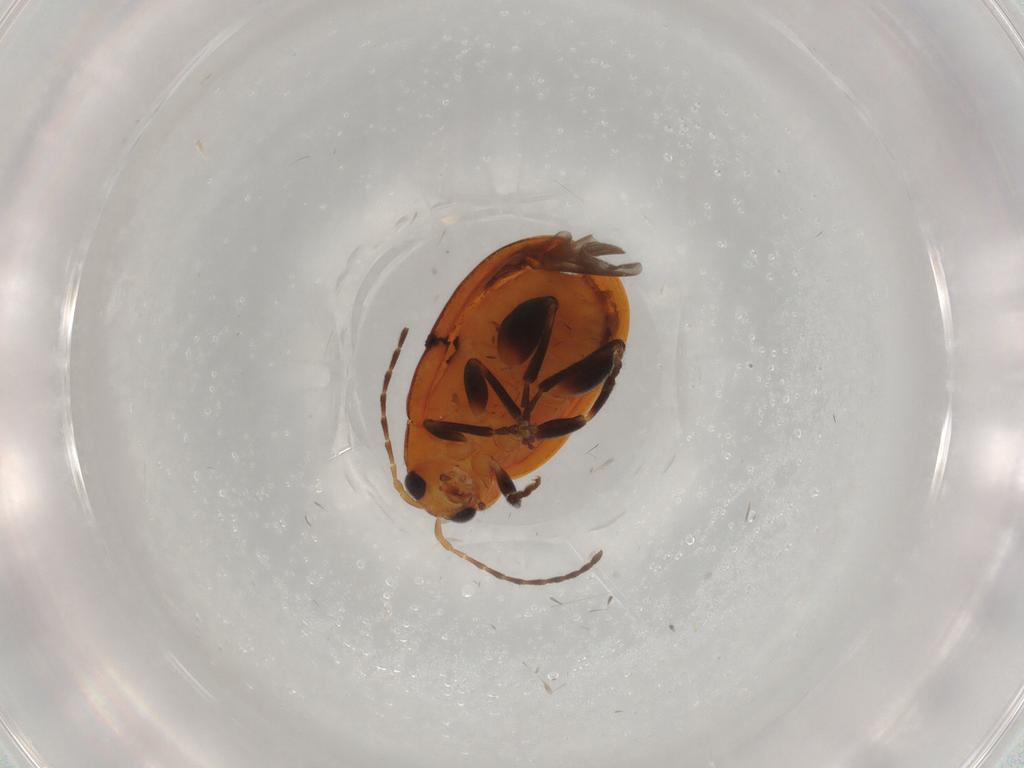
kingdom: Animalia
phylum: Arthropoda
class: Insecta
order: Coleoptera
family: Chrysomelidae
